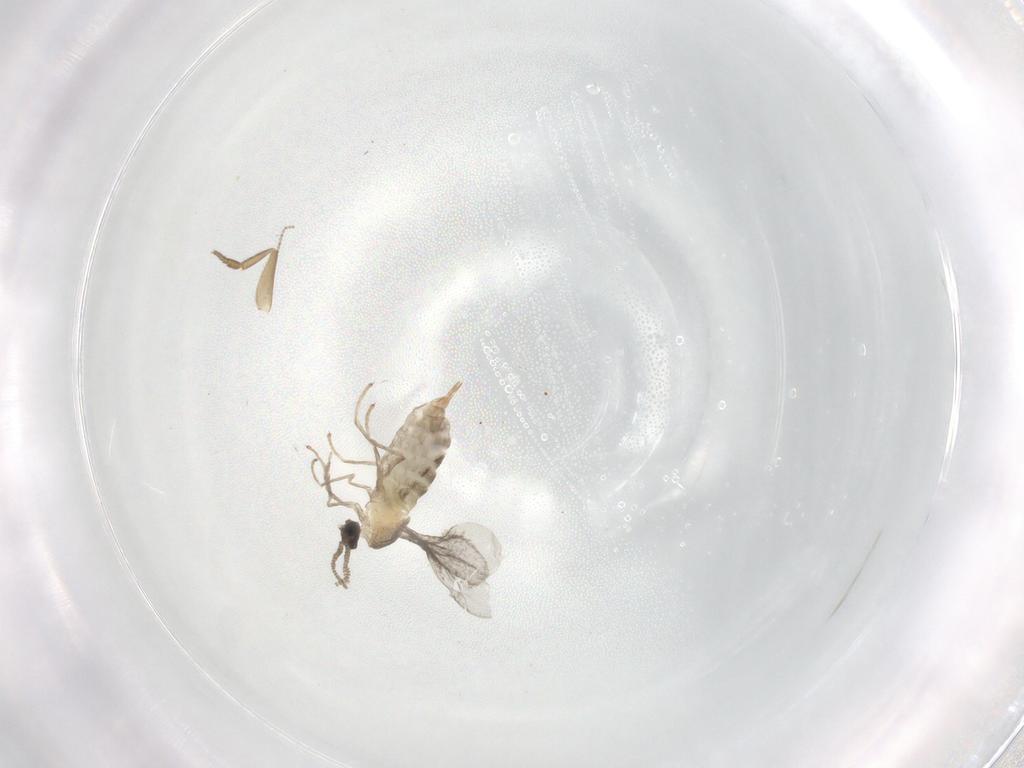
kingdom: Animalia
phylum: Arthropoda
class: Insecta
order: Diptera
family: Cecidomyiidae
